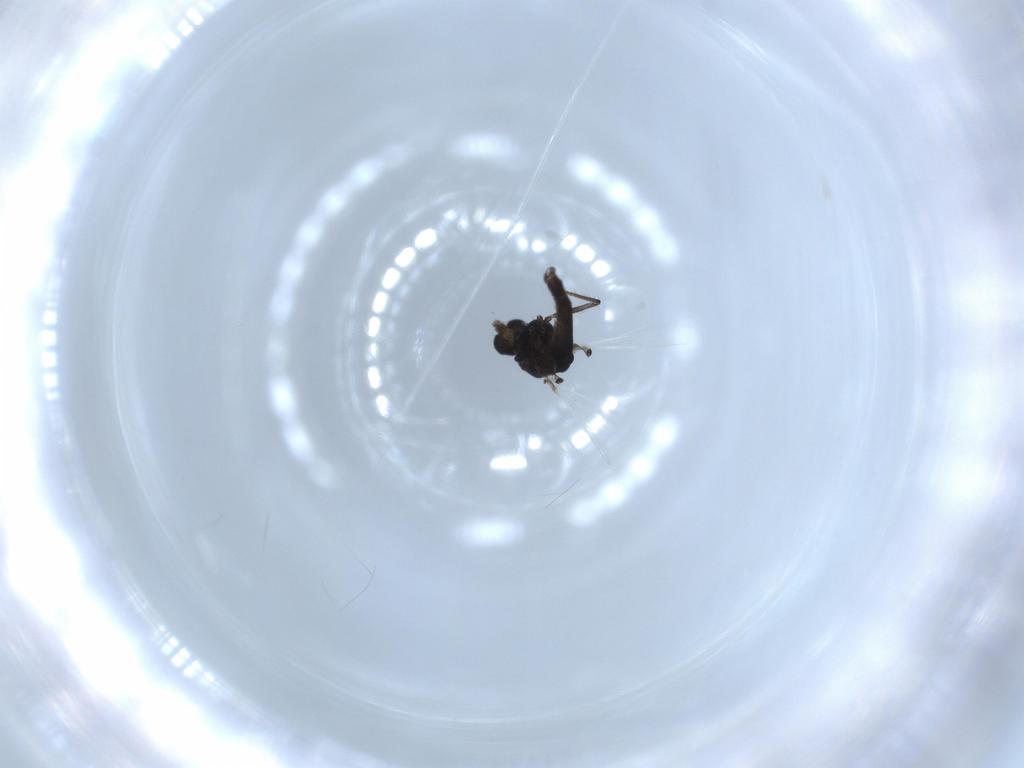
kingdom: Animalia
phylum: Arthropoda
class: Insecta
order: Diptera
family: Chironomidae
